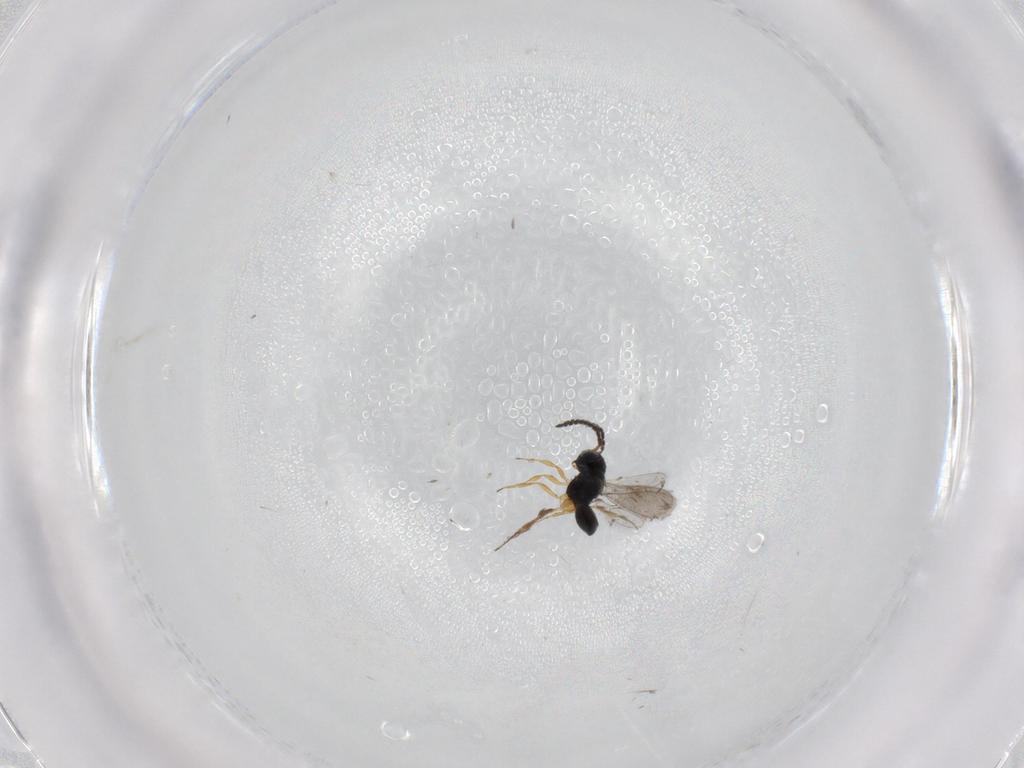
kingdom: Animalia
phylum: Arthropoda
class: Insecta
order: Hymenoptera
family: Scelionidae
